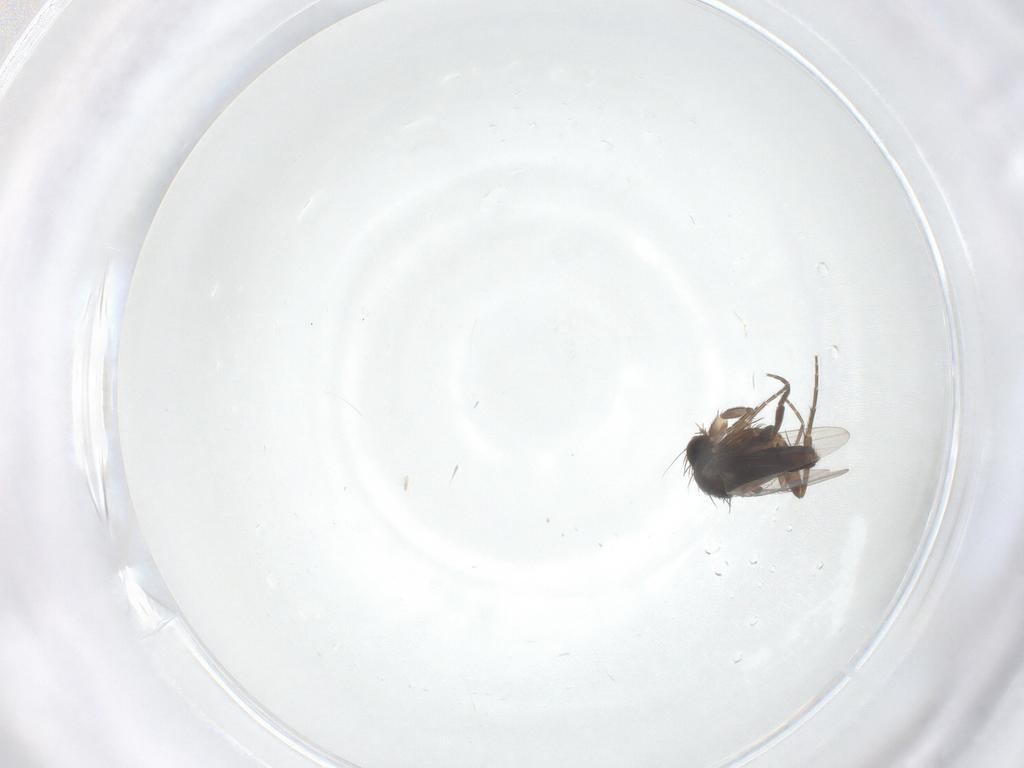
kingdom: Animalia
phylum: Arthropoda
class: Insecta
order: Diptera
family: Phoridae
